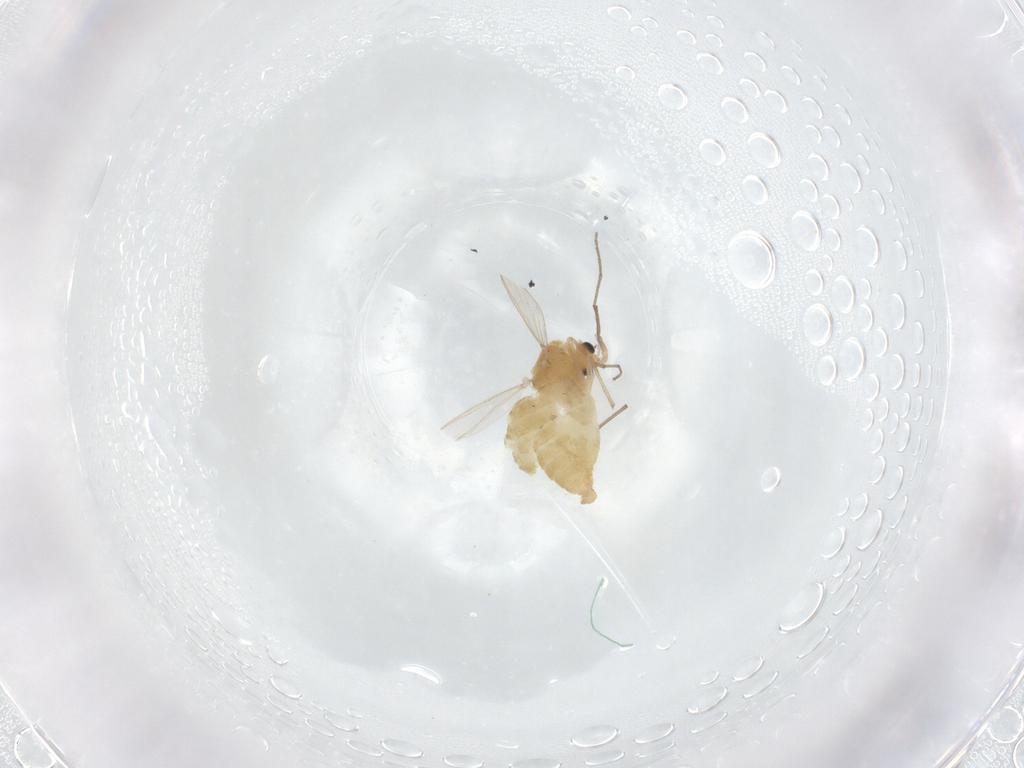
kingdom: Animalia
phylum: Arthropoda
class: Insecta
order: Diptera
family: Chironomidae
